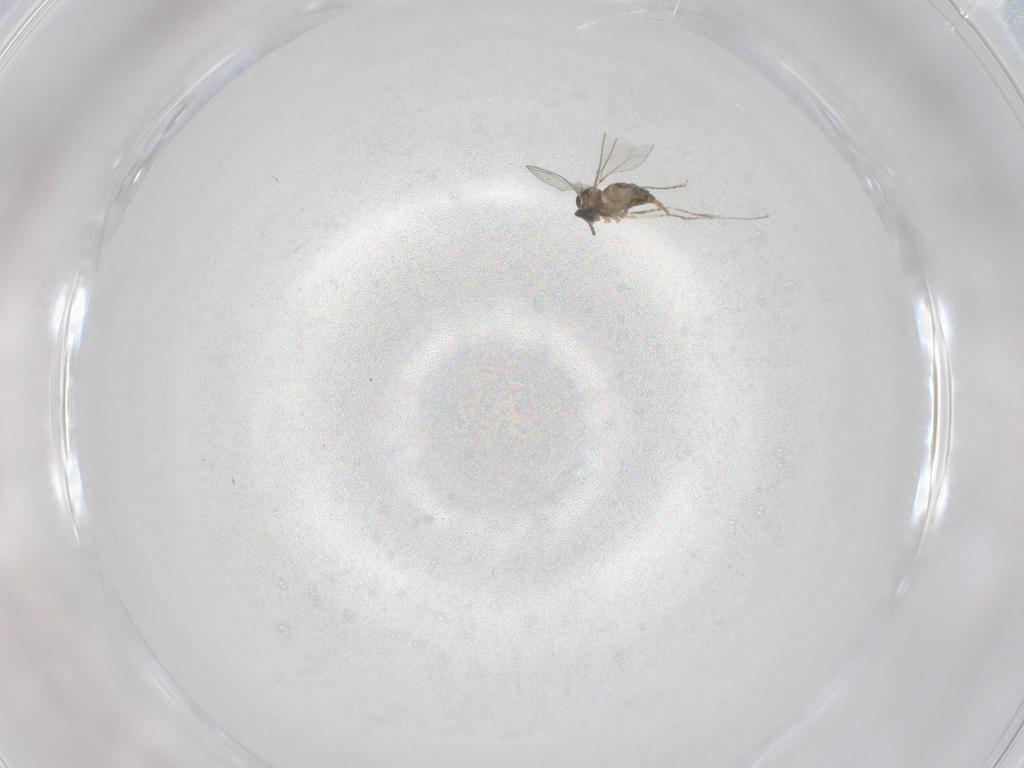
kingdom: Animalia
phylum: Arthropoda
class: Insecta
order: Diptera
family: Cecidomyiidae
